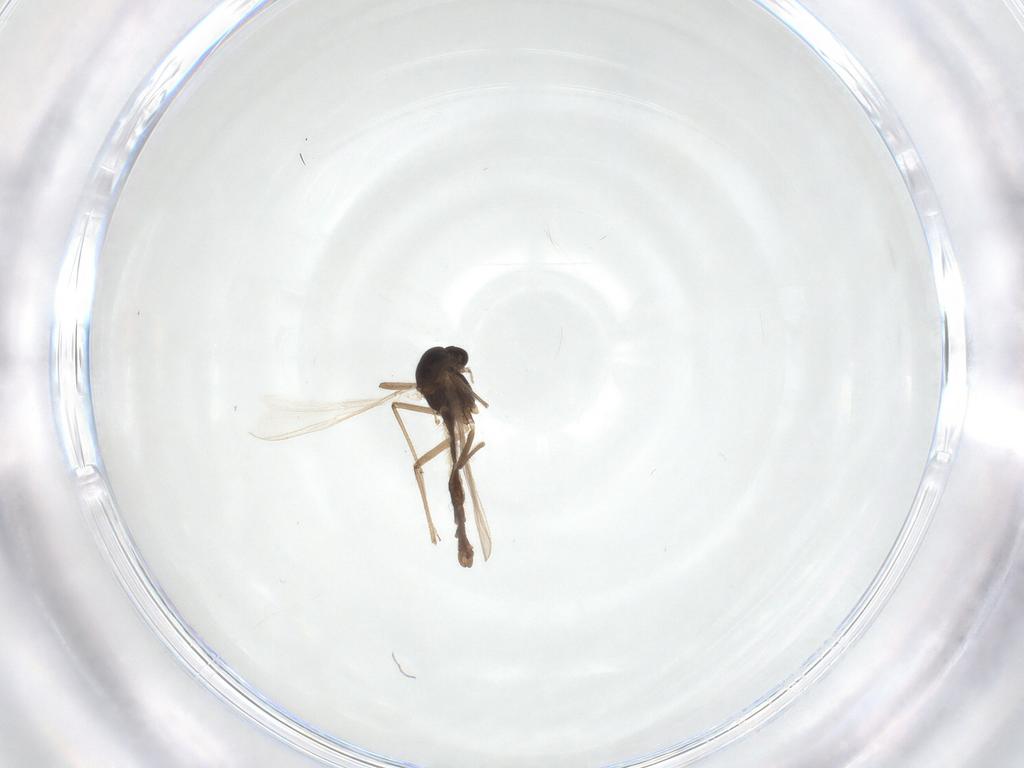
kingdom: Animalia
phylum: Arthropoda
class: Insecta
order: Diptera
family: Chironomidae
